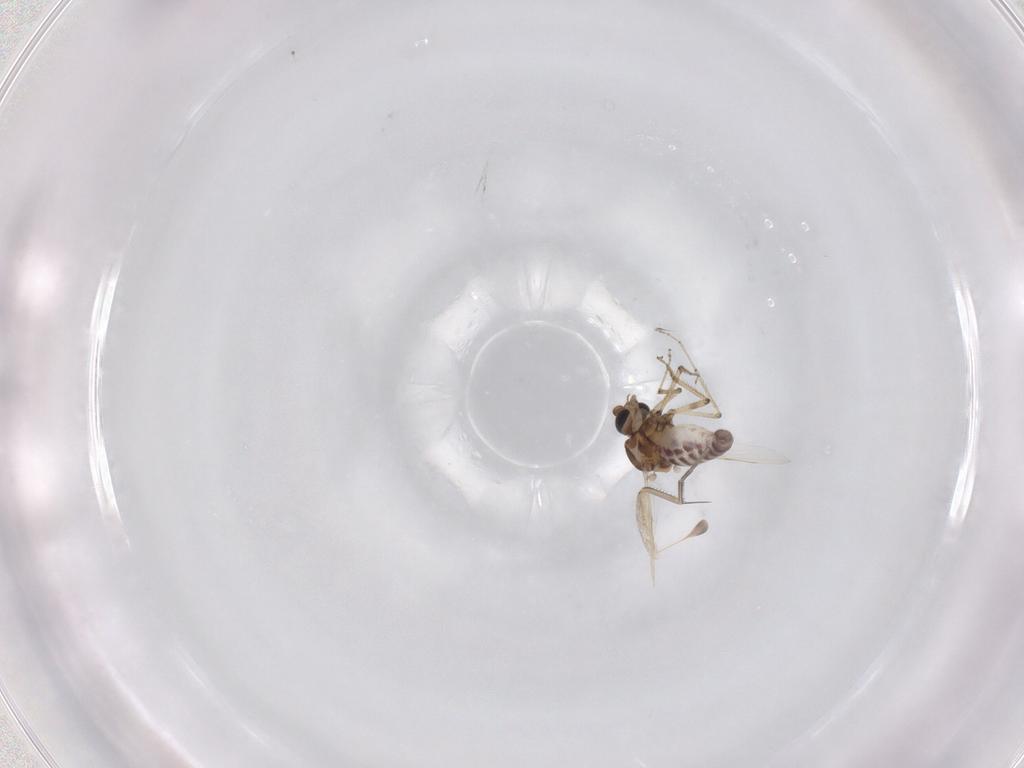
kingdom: Animalia
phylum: Arthropoda
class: Insecta
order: Diptera
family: Ceratopogonidae
